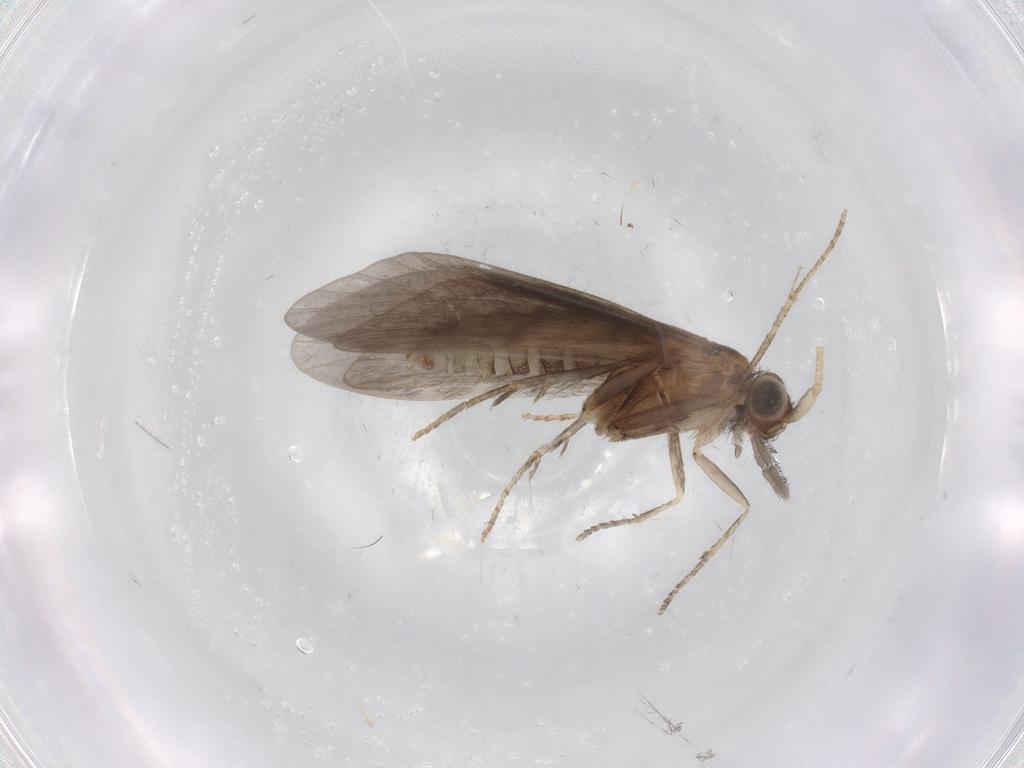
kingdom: Animalia
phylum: Arthropoda
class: Insecta
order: Trichoptera
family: Helicopsychidae
